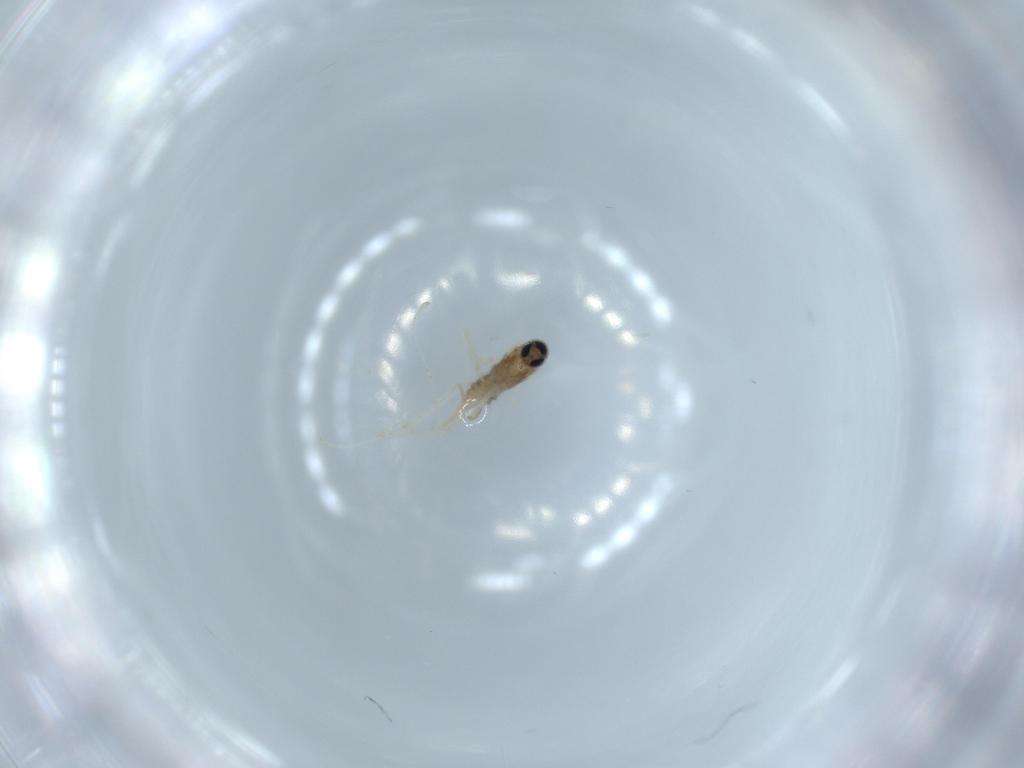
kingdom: Animalia
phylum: Arthropoda
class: Insecta
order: Diptera
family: Cecidomyiidae
